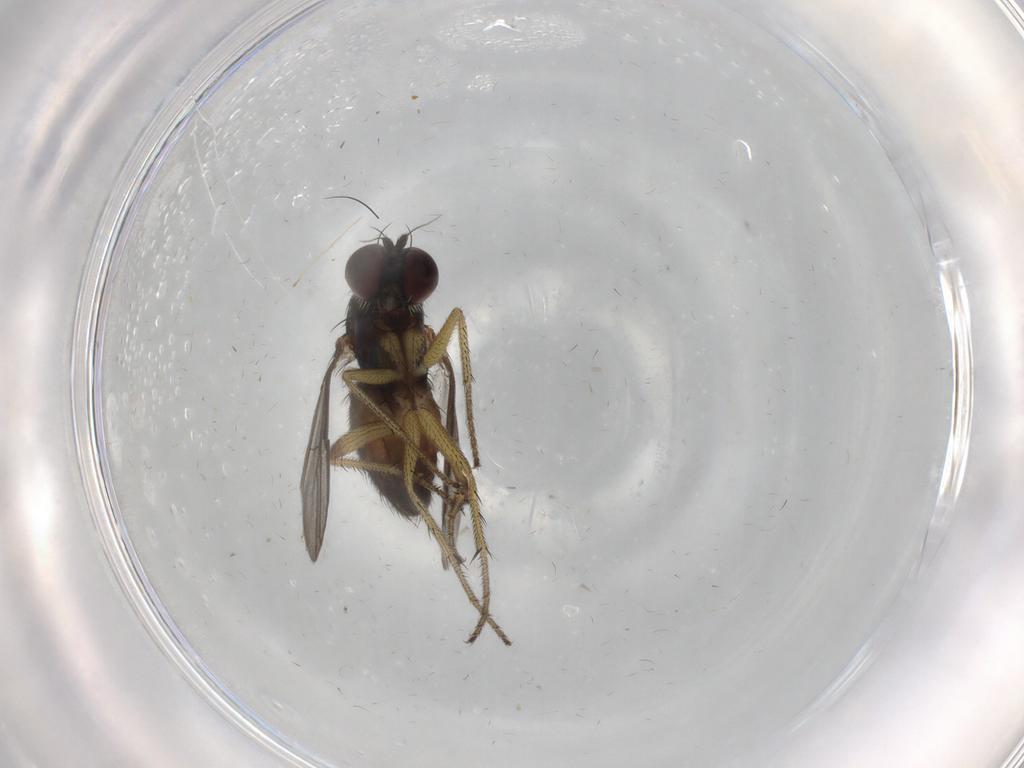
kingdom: Animalia
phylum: Arthropoda
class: Insecta
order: Diptera
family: Dolichopodidae
